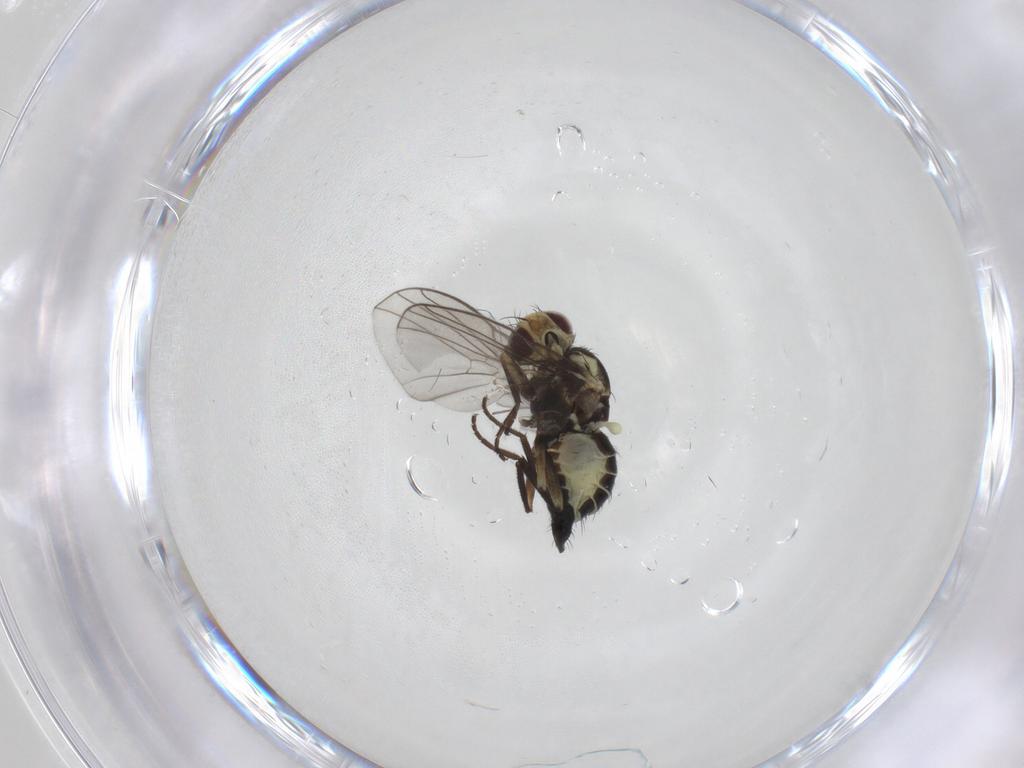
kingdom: Animalia
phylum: Arthropoda
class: Insecta
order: Diptera
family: Agromyzidae
